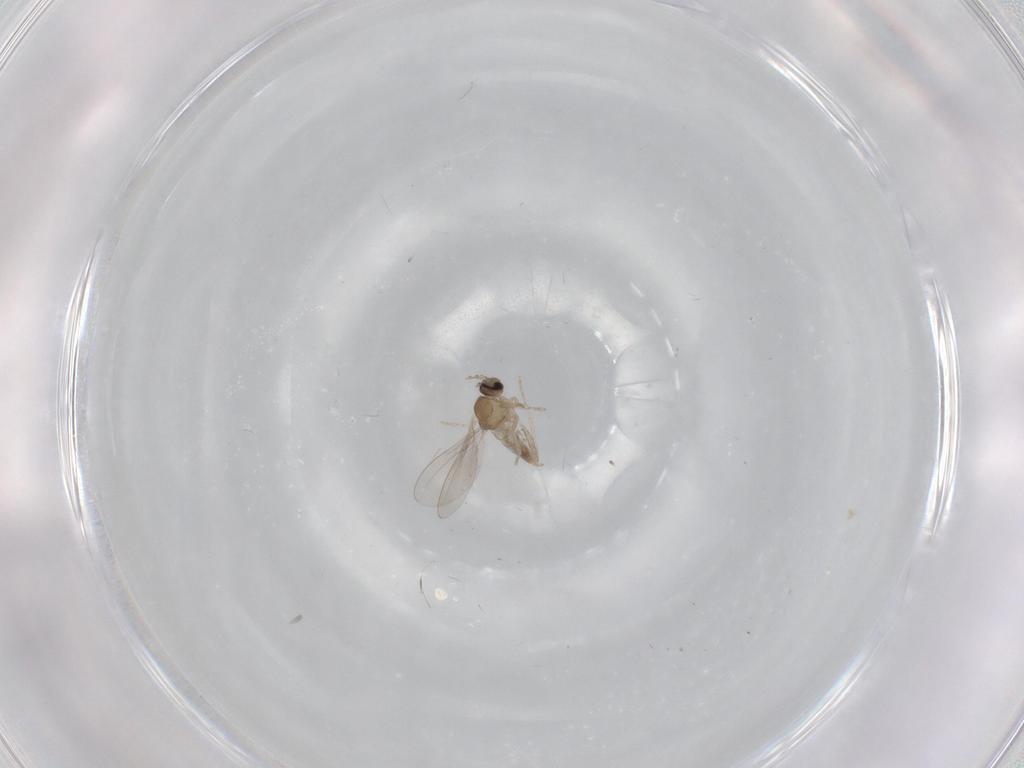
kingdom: Animalia
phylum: Arthropoda
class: Insecta
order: Diptera
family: Cecidomyiidae
